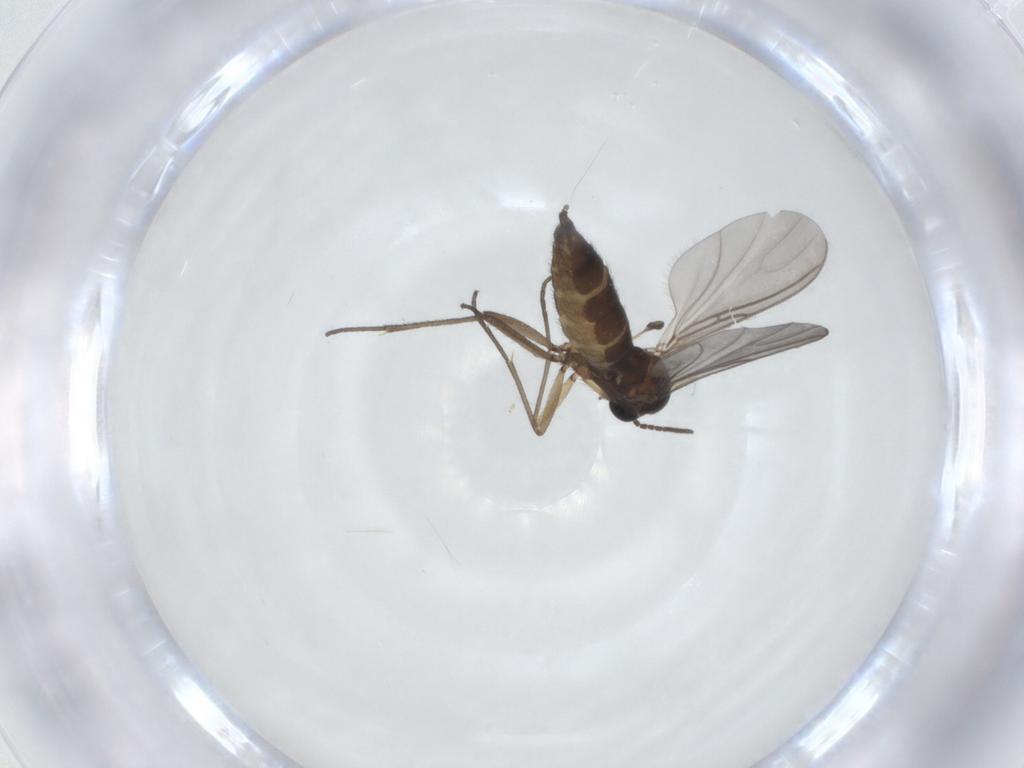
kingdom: Animalia
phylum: Arthropoda
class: Insecta
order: Diptera
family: Sciaridae
